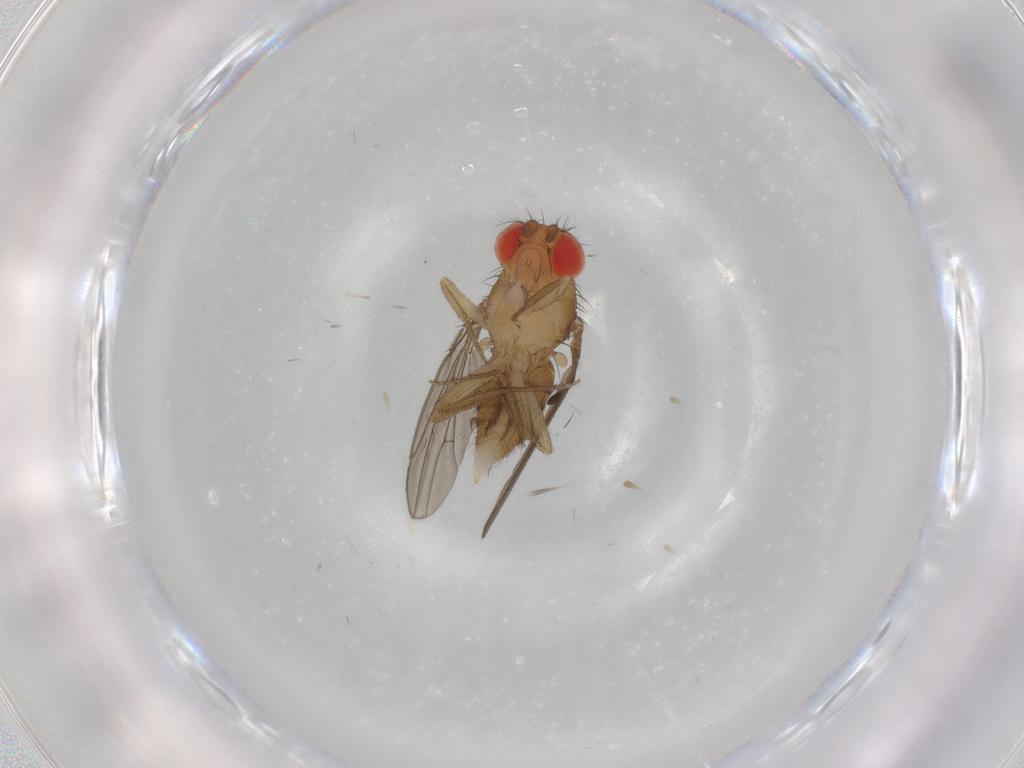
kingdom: Animalia
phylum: Arthropoda
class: Insecta
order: Diptera
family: Drosophilidae
